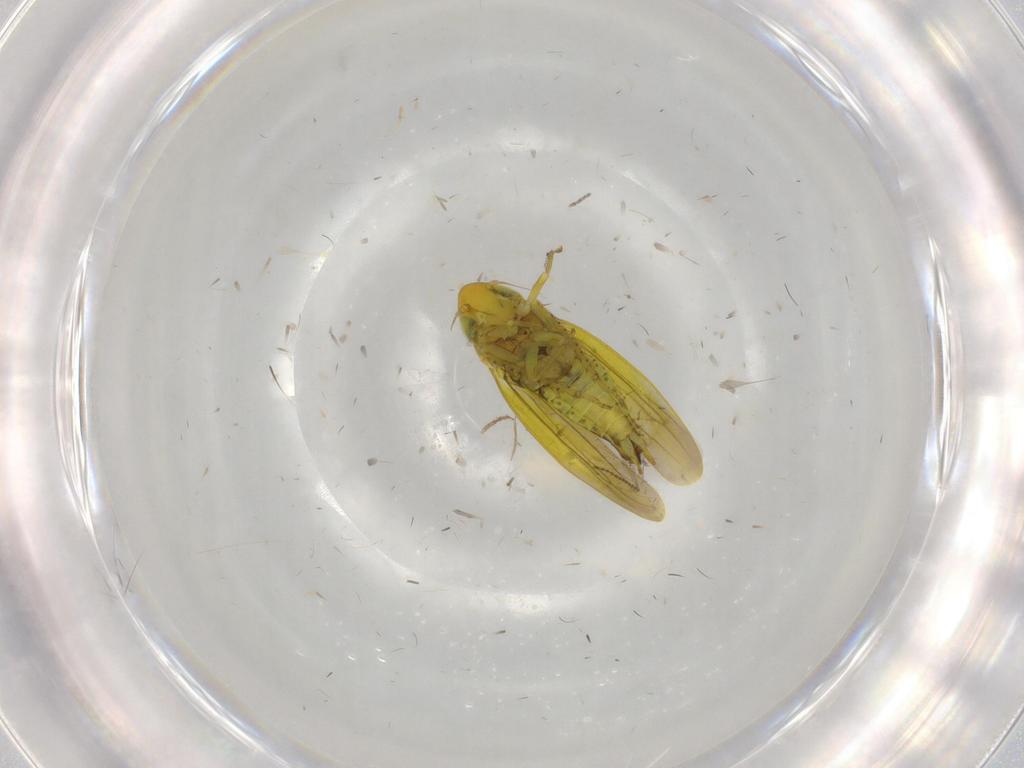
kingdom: Animalia
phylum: Arthropoda
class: Insecta
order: Hemiptera
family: Cicadellidae
